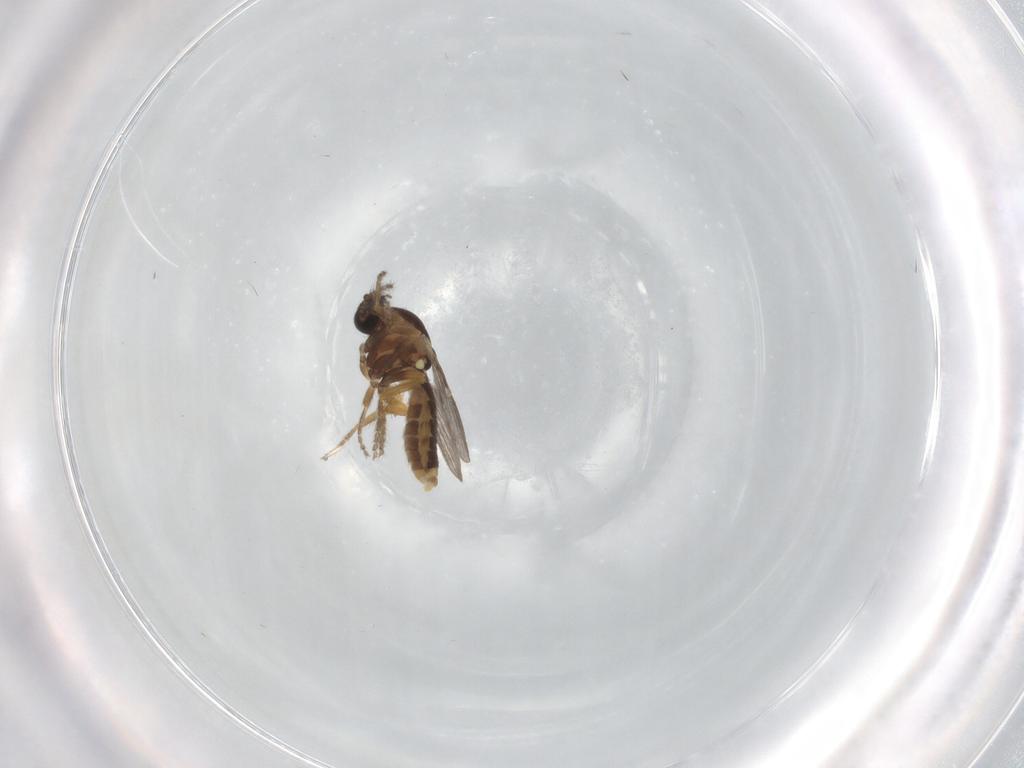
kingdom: Animalia
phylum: Arthropoda
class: Insecta
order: Diptera
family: Ceratopogonidae
